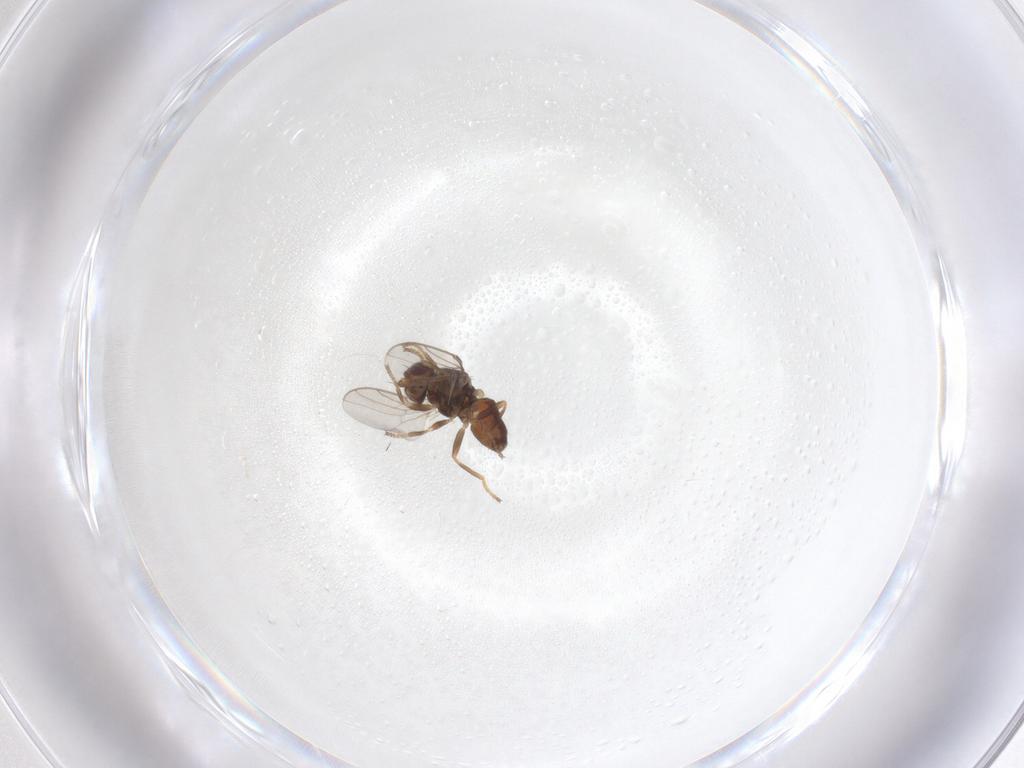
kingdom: Animalia
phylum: Arthropoda
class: Insecta
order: Diptera
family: Chloropidae
